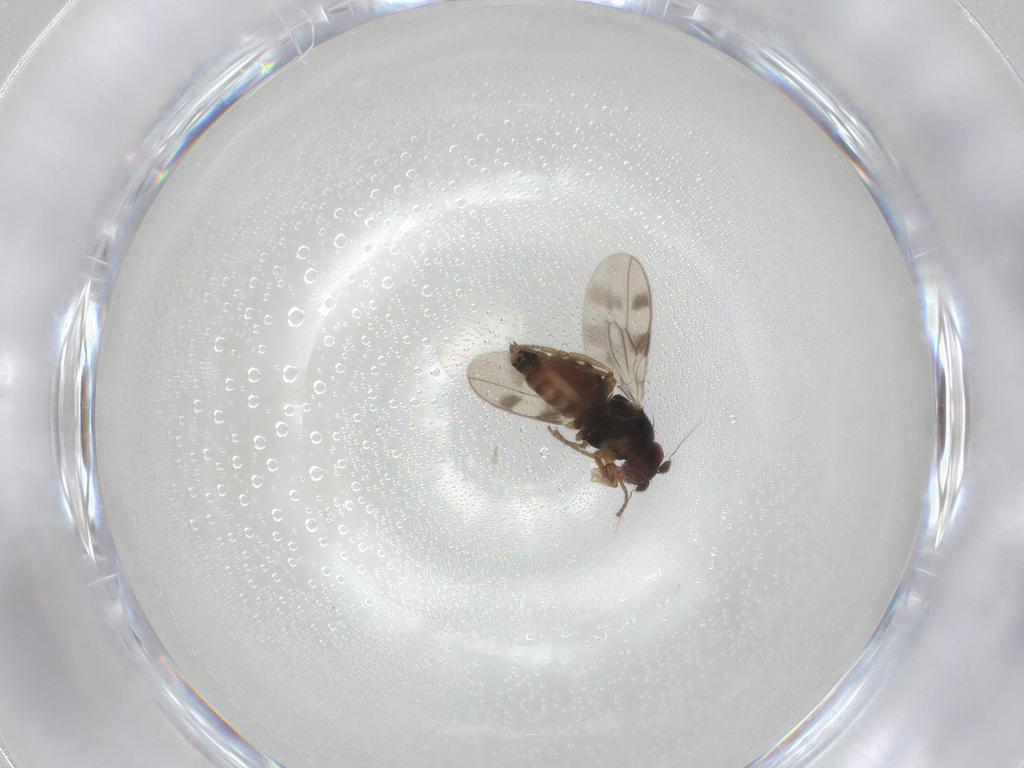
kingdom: Animalia
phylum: Arthropoda
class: Insecta
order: Diptera
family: Sphaeroceridae
